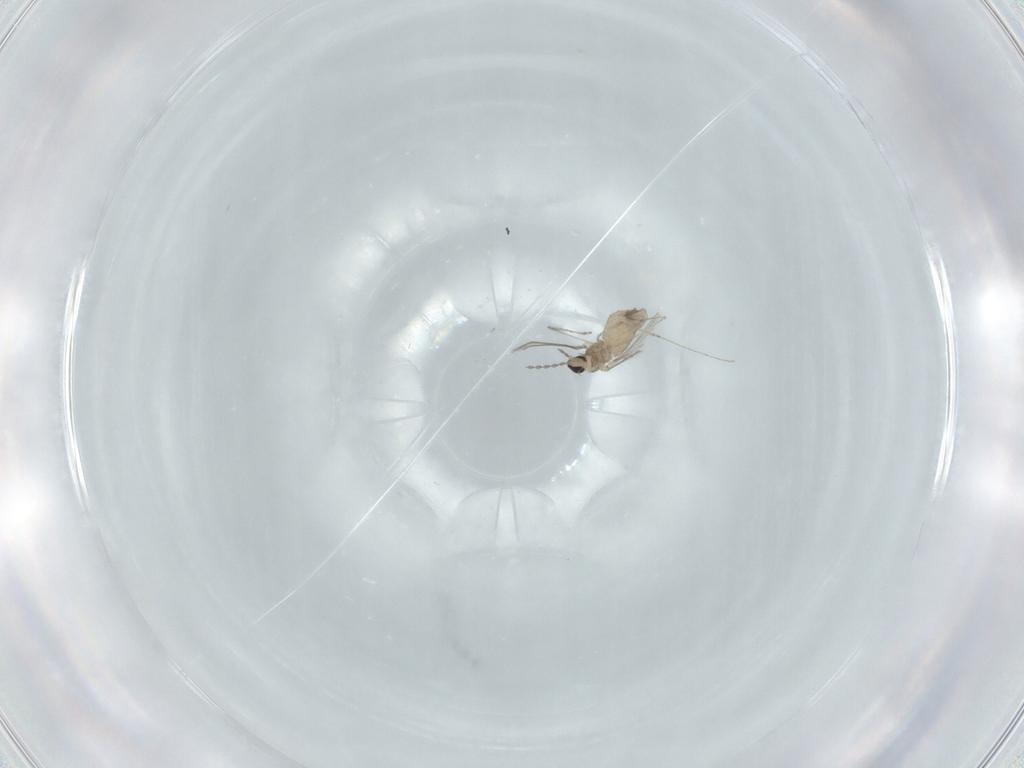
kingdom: Animalia
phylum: Arthropoda
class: Insecta
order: Diptera
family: Cecidomyiidae
